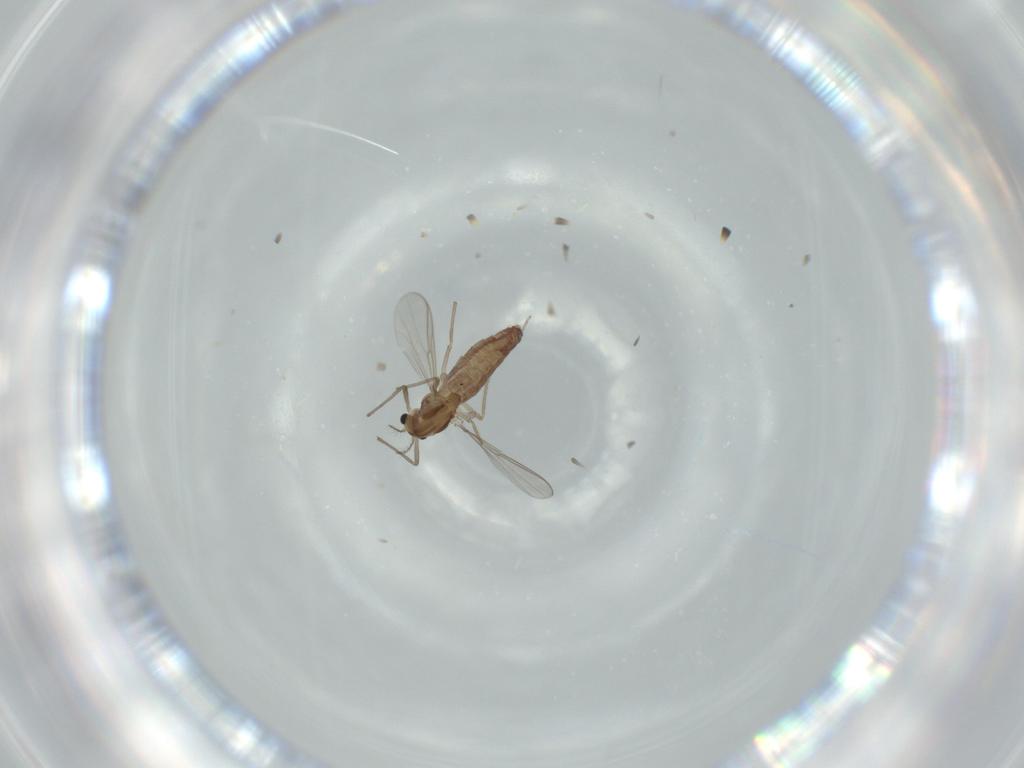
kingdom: Animalia
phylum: Arthropoda
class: Insecta
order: Diptera
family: Chironomidae
